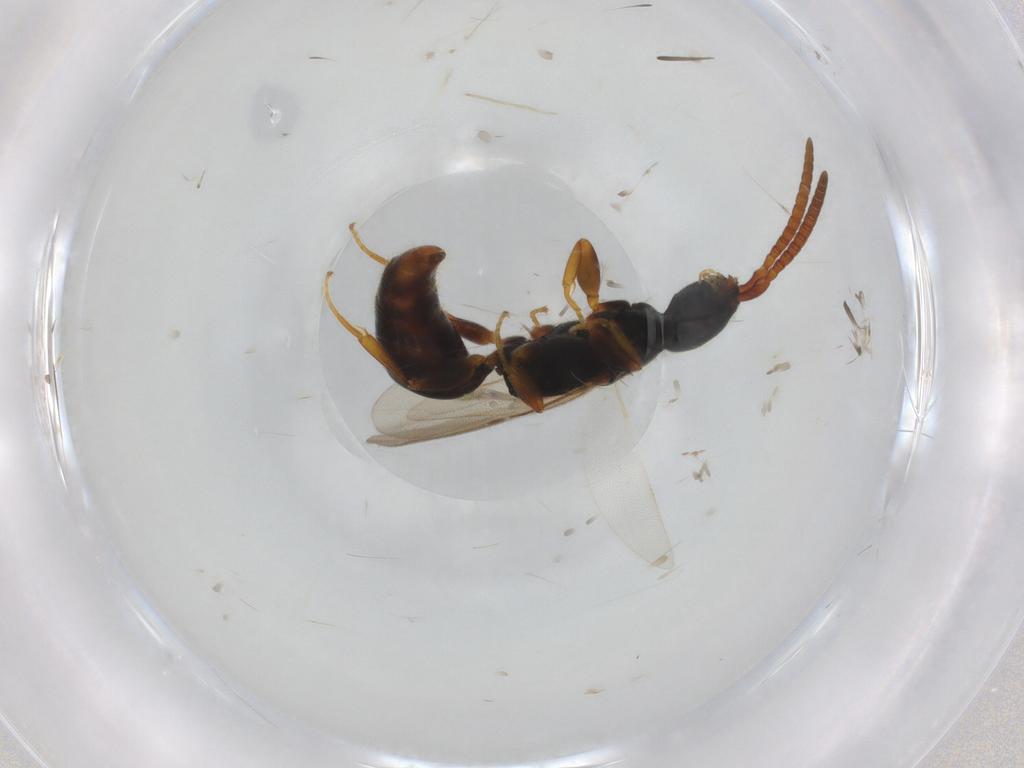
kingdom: Animalia
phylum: Arthropoda
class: Insecta
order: Hymenoptera
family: Bethylidae
